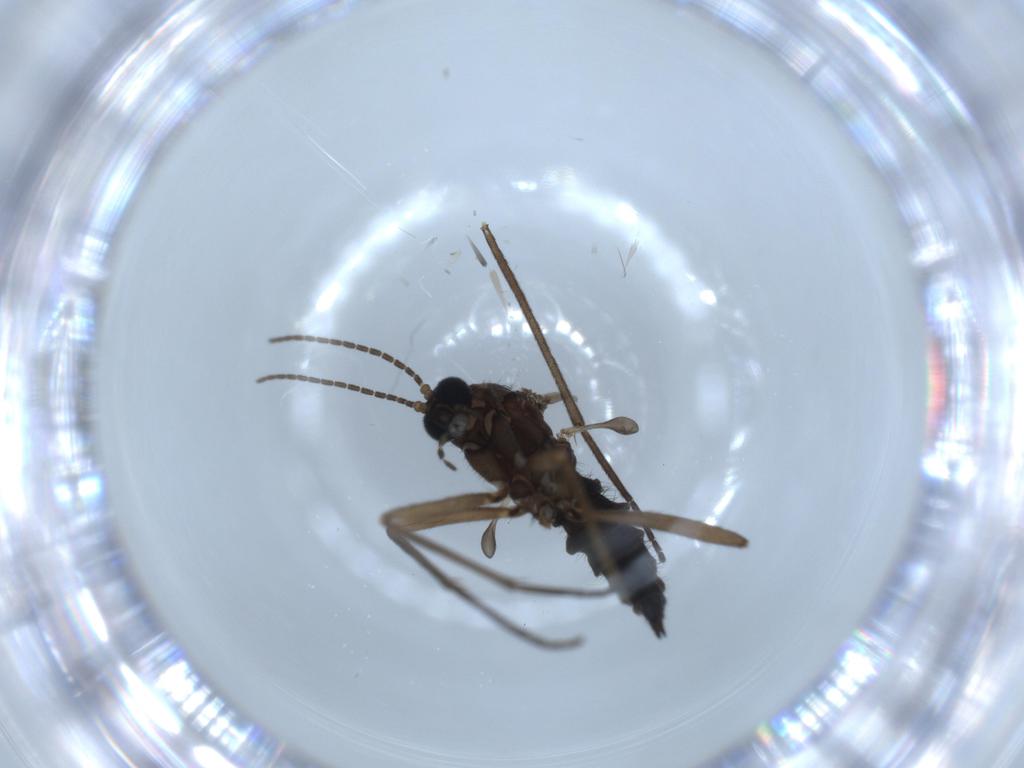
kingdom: Animalia
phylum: Arthropoda
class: Insecta
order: Diptera
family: Sciaridae
